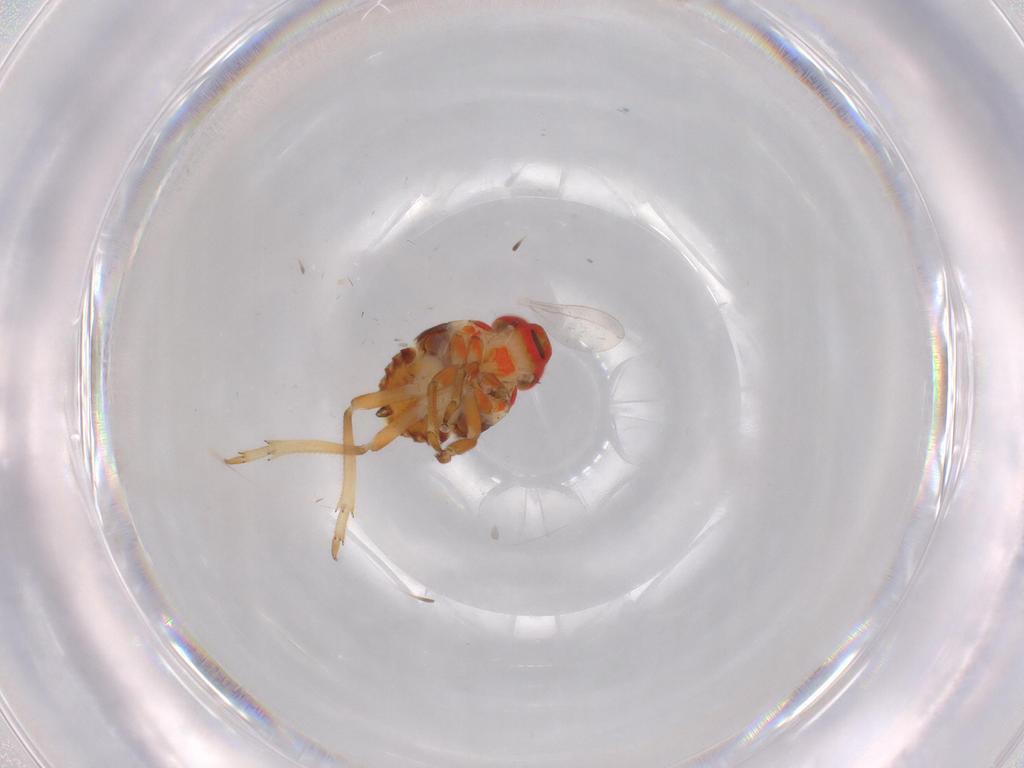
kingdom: Animalia
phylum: Arthropoda
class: Insecta
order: Hemiptera
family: Issidae
